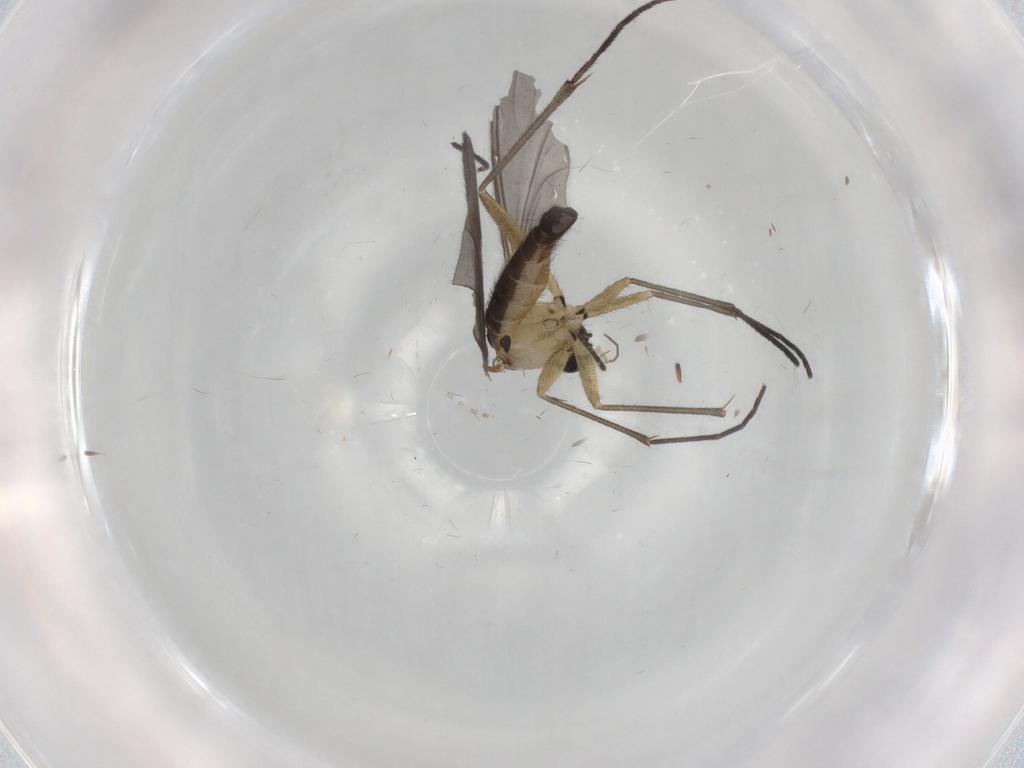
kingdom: Animalia
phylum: Arthropoda
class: Insecta
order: Diptera
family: Sciaridae
